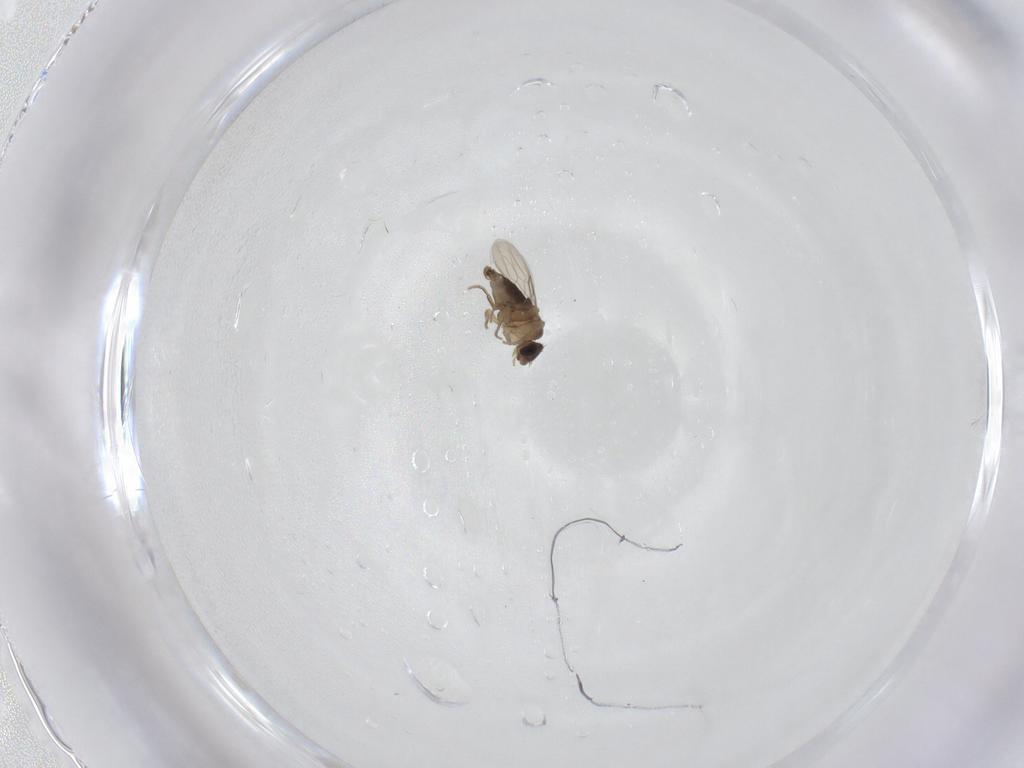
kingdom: Animalia
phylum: Arthropoda
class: Insecta
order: Diptera
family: Phoridae
